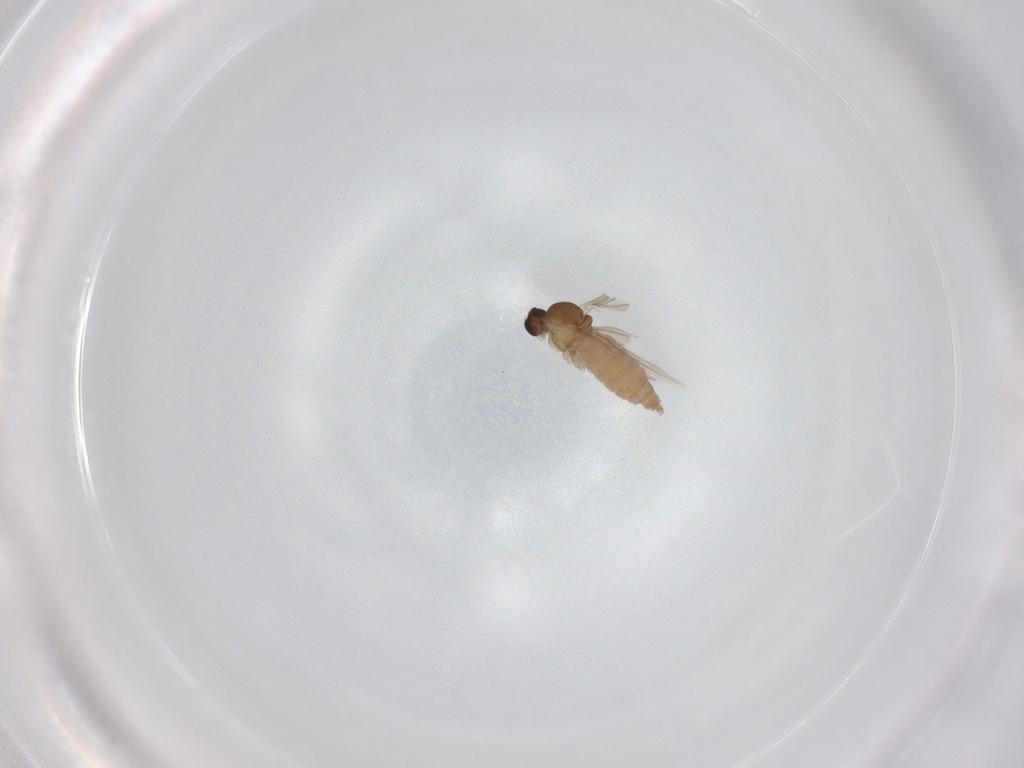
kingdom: Animalia
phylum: Arthropoda
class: Insecta
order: Diptera
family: Cecidomyiidae
